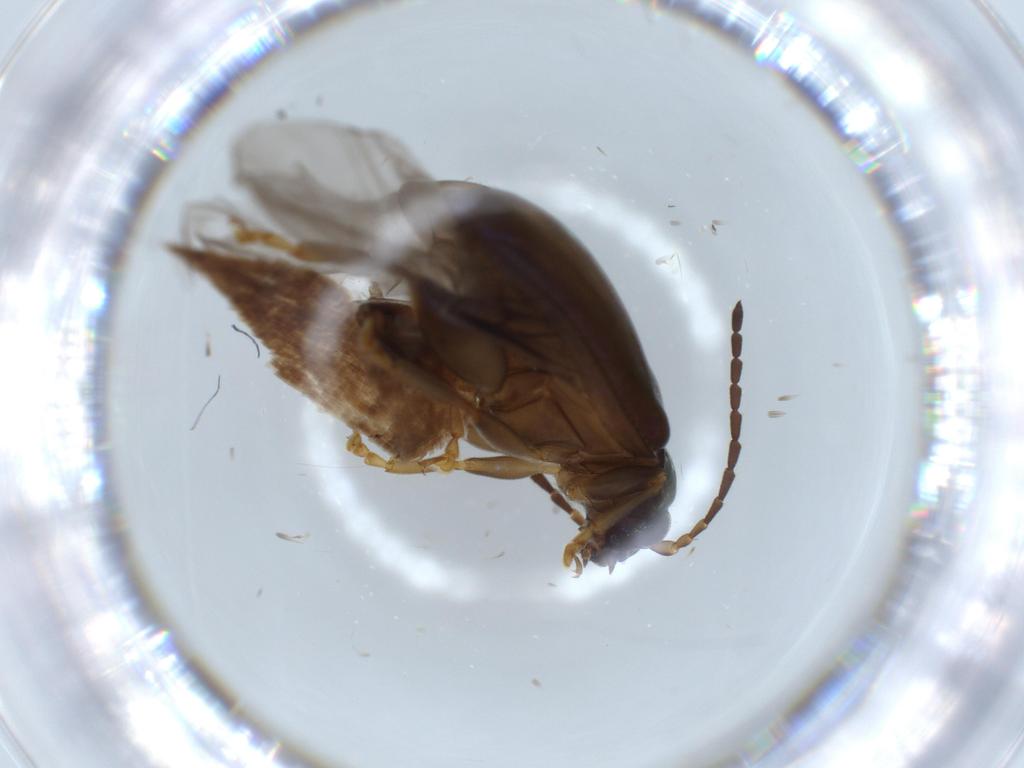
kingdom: Animalia
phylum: Arthropoda
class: Insecta
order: Coleoptera
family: Chrysomelidae
